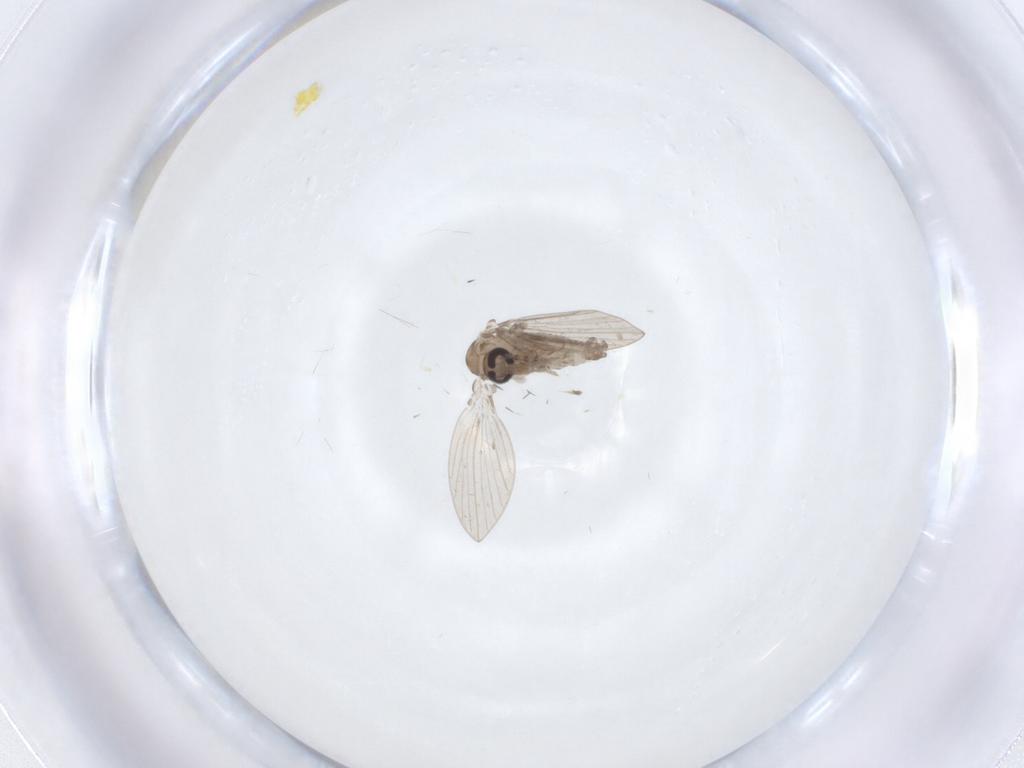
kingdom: Animalia
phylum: Arthropoda
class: Insecta
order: Diptera
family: Psychodidae
